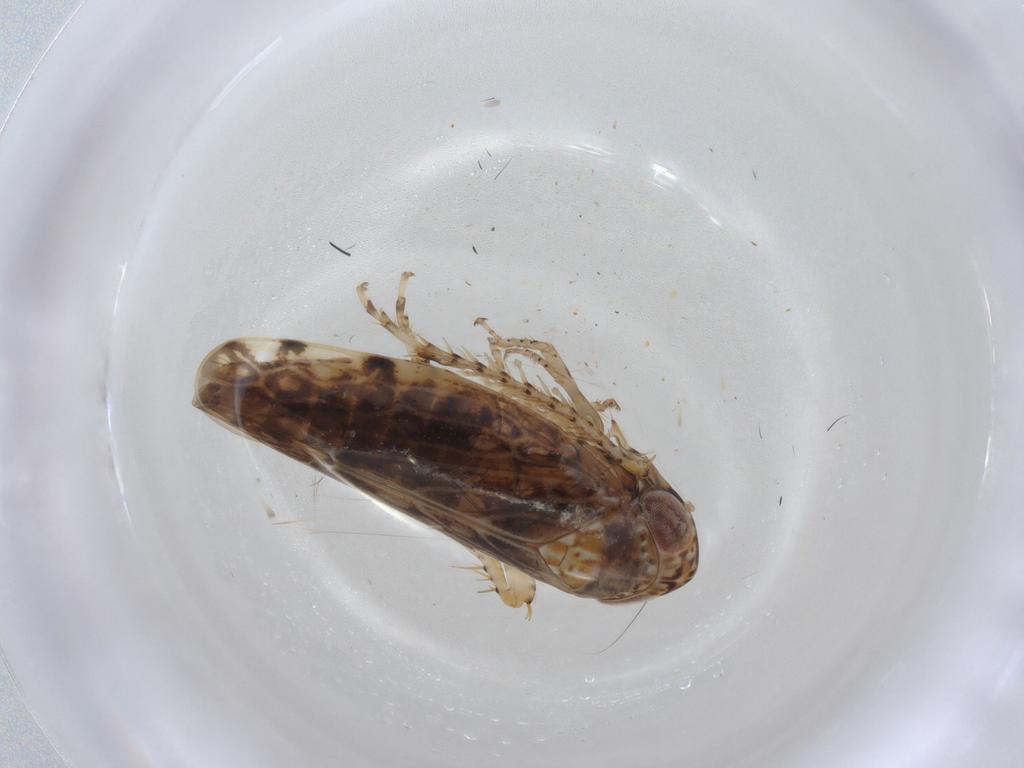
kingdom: Animalia
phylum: Arthropoda
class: Insecta
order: Hemiptera
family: Cicadellidae
